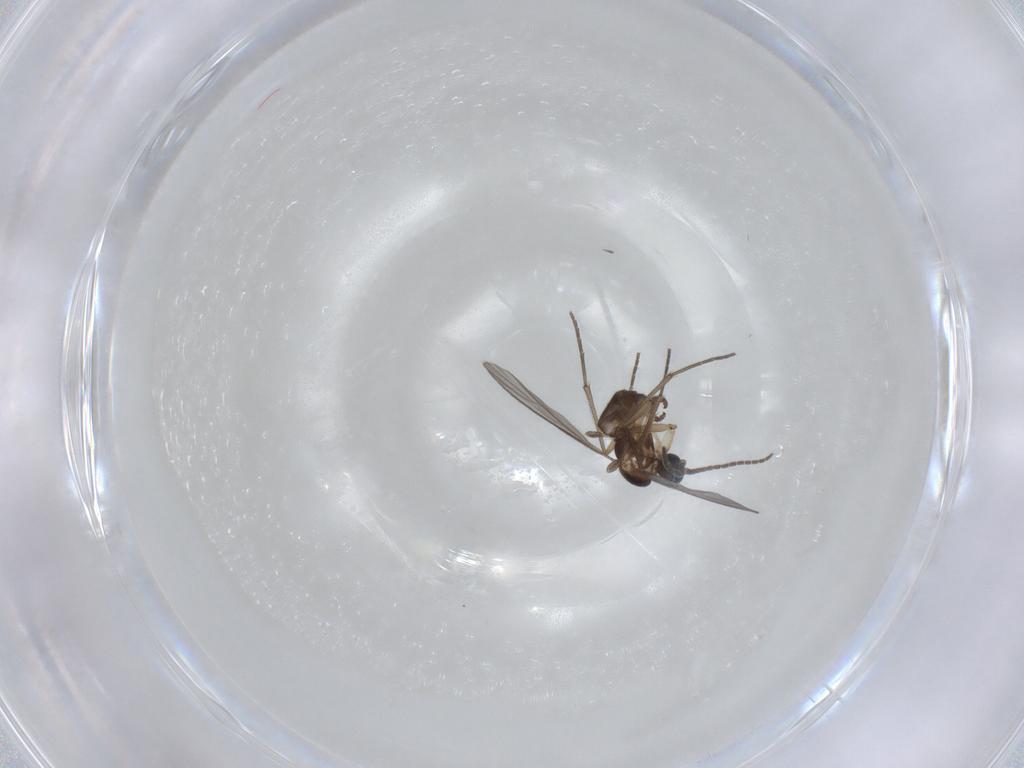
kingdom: Animalia
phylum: Arthropoda
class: Insecta
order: Diptera
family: Sciaridae
